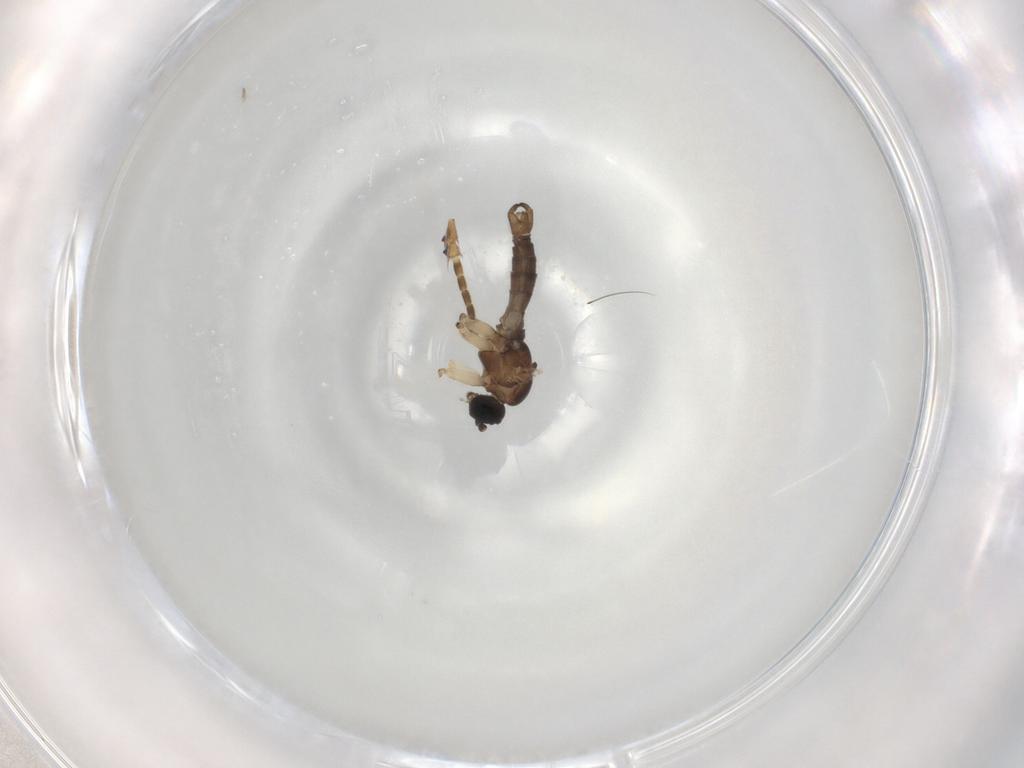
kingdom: Animalia
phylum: Arthropoda
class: Insecta
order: Diptera
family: Sciaridae
